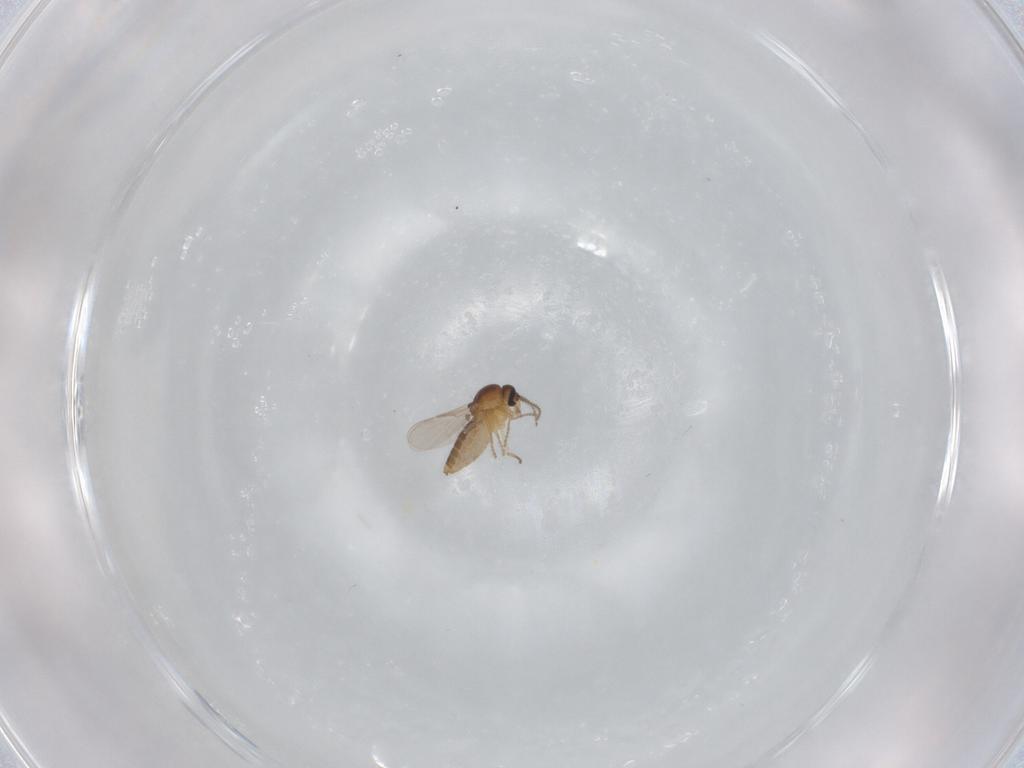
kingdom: Animalia
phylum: Arthropoda
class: Insecta
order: Diptera
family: Ceratopogonidae
